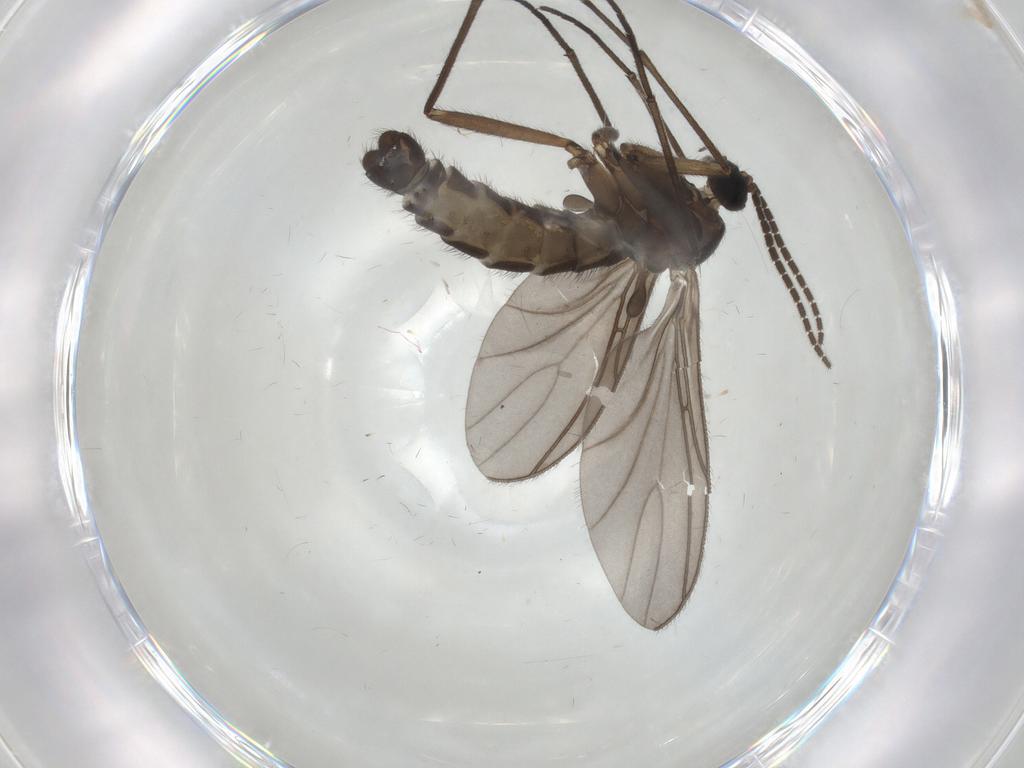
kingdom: Animalia
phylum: Arthropoda
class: Insecta
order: Diptera
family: Sciaridae
